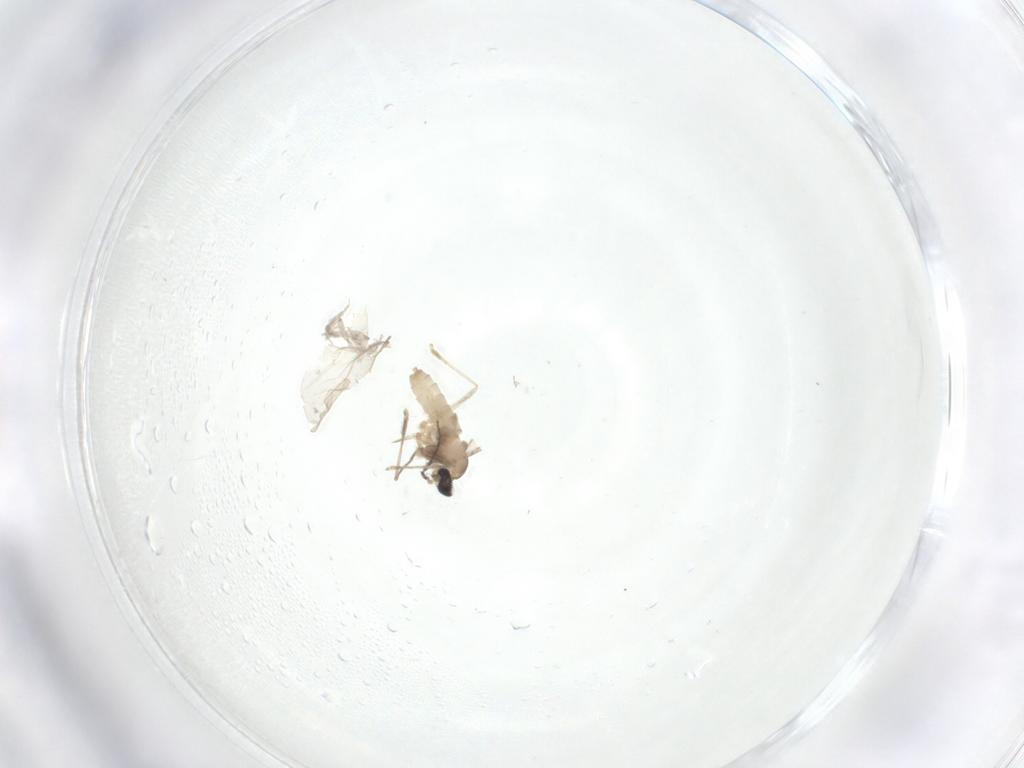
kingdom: Animalia
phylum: Arthropoda
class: Insecta
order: Diptera
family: Cecidomyiidae
